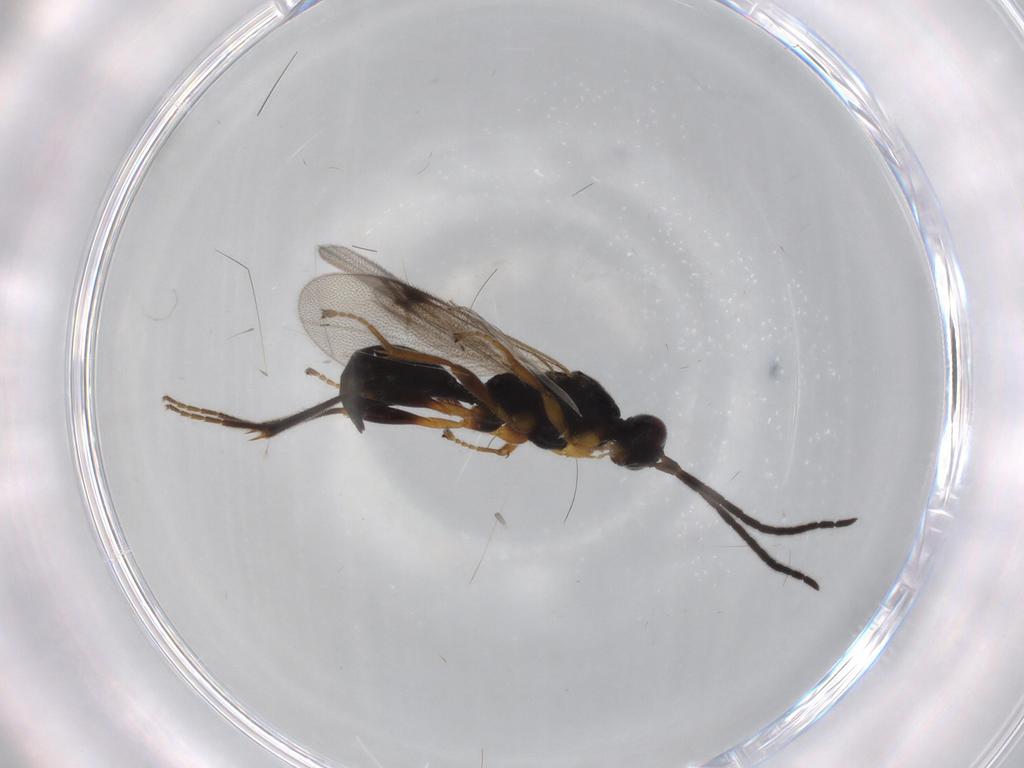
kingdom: Animalia
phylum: Arthropoda
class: Insecta
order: Hymenoptera
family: Proctotrupidae
